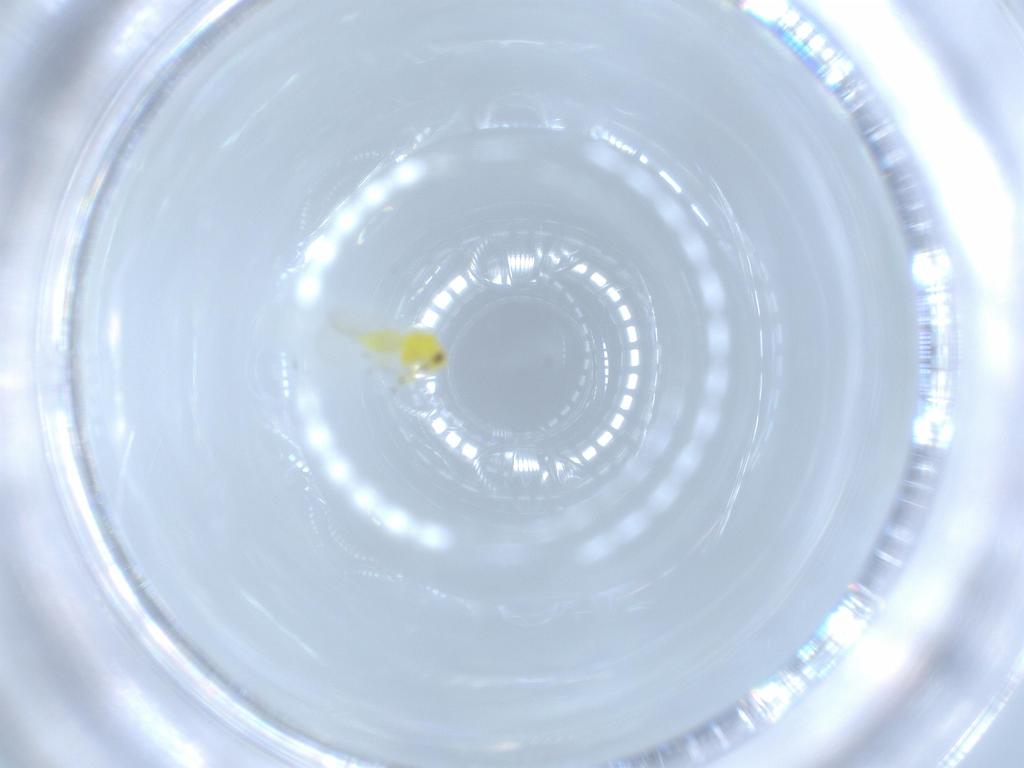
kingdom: Animalia
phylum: Arthropoda
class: Insecta
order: Hemiptera
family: Aleyrodidae
